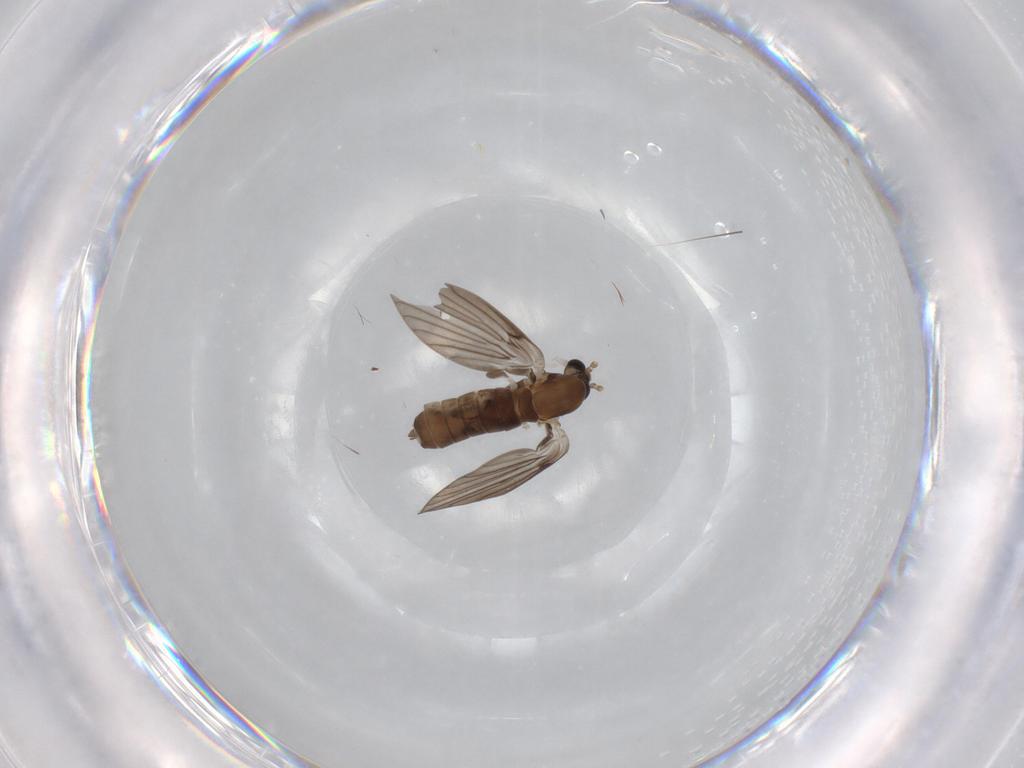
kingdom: Animalia
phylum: Arthropoda
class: Insecta
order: Diptera
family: Phoridae
